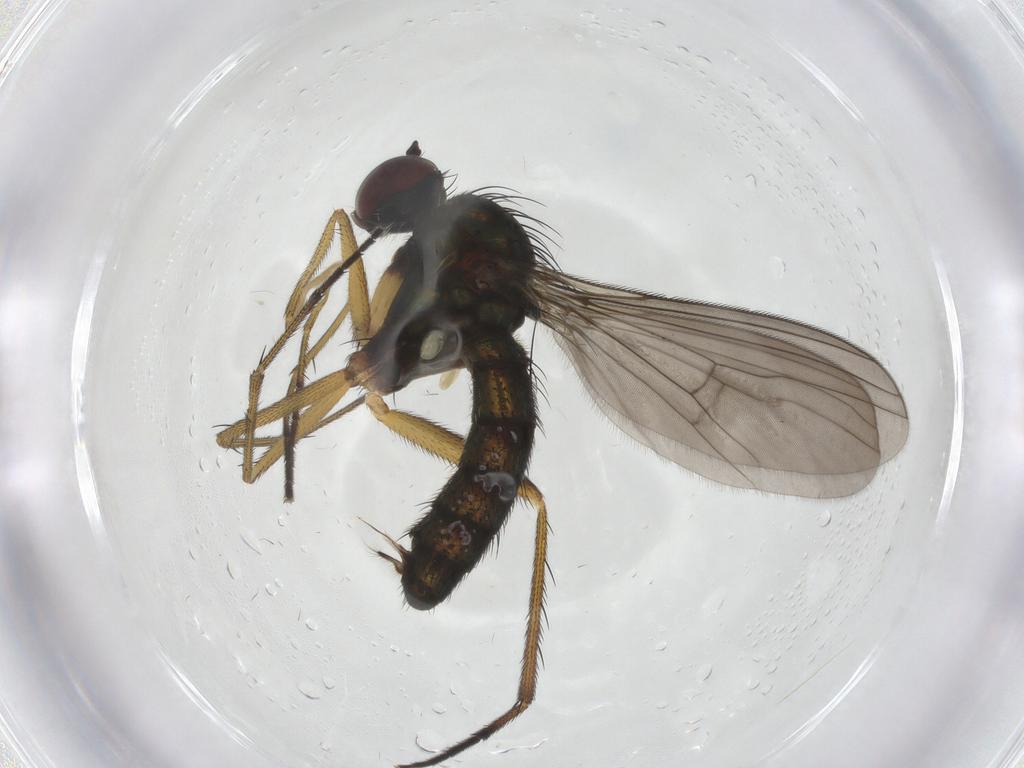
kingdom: Animalia
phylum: Arthropoda
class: Insecta
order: Diptera
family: Dolichopodidae
